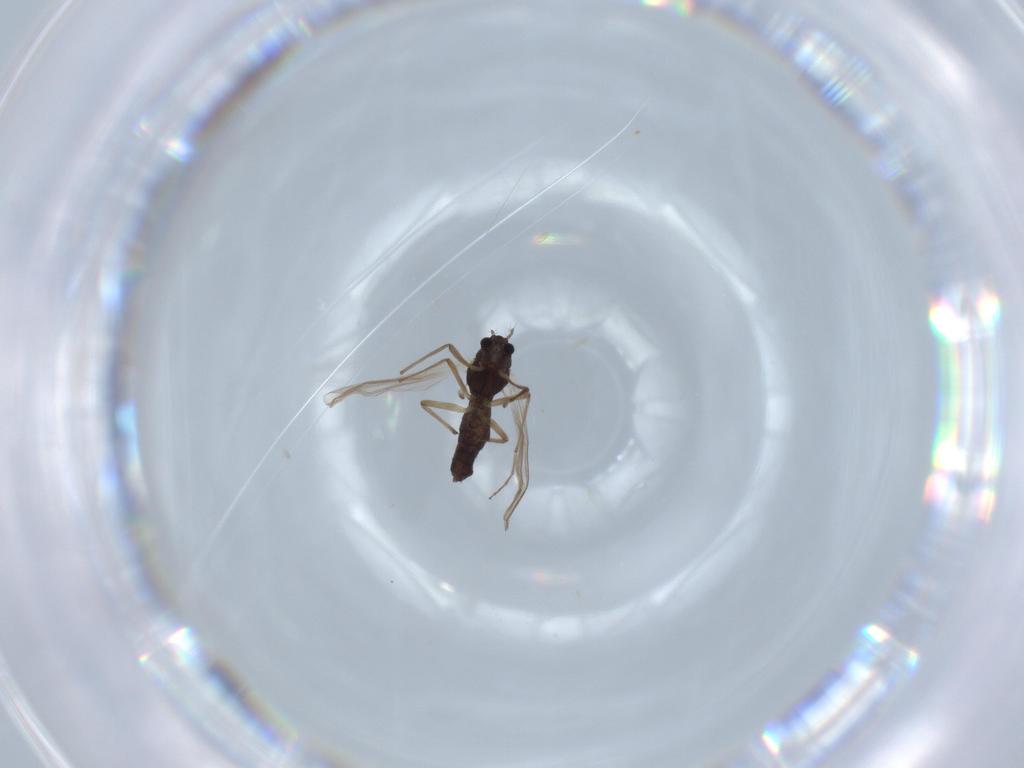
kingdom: Animalia
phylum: Arthropoda
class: Insecta
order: Diptera
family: Chironomidae
